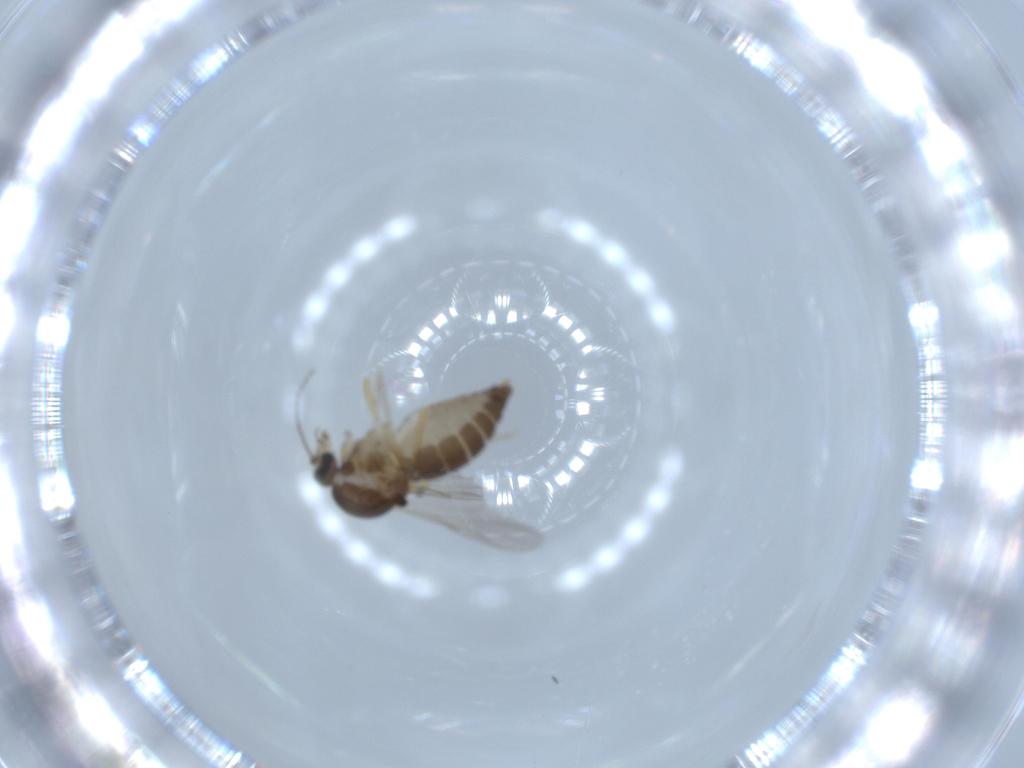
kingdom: Animalia
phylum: Arthropoda
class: Insecta
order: Diptera
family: Ceratopogonidae
